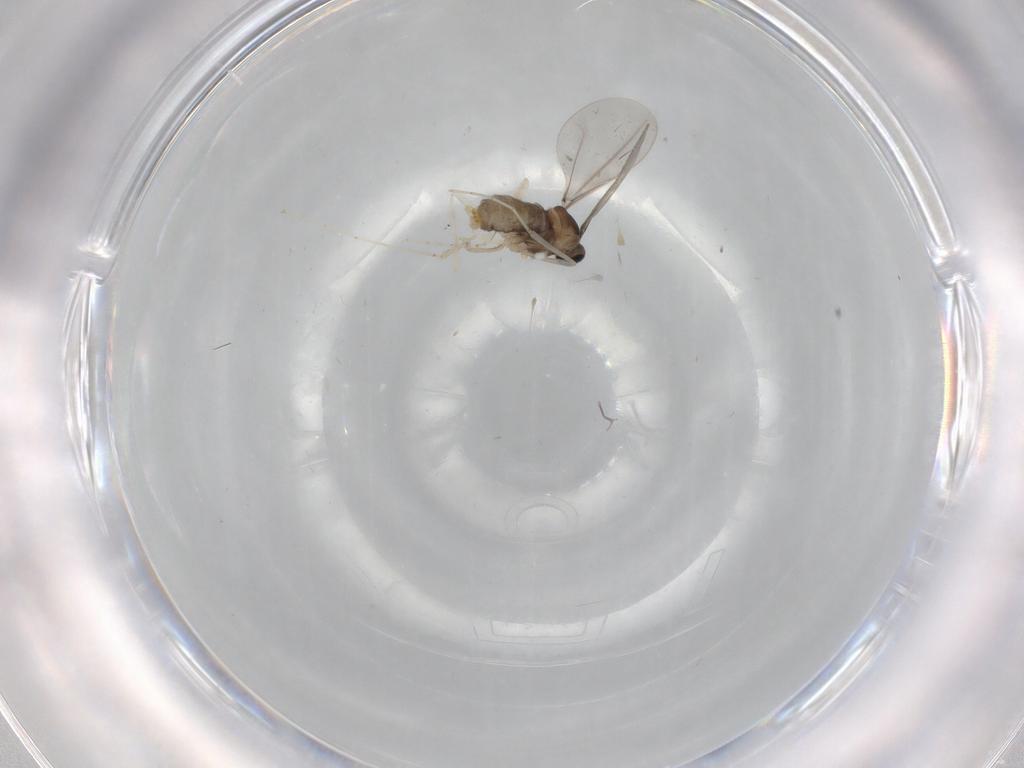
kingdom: Animalia
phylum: Arthropoda
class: Insecta
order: Diptera
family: Cecidomyiidae
